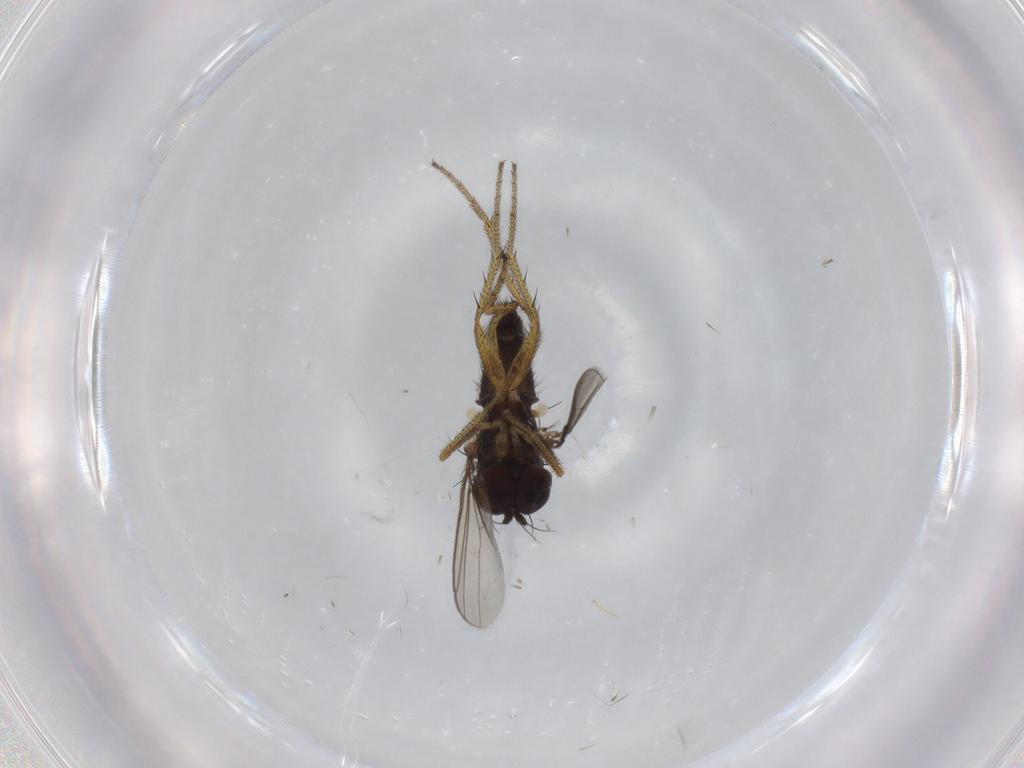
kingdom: Animalia
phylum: Arthropoda
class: Insecta
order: Diptera
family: Dolichopodidae
